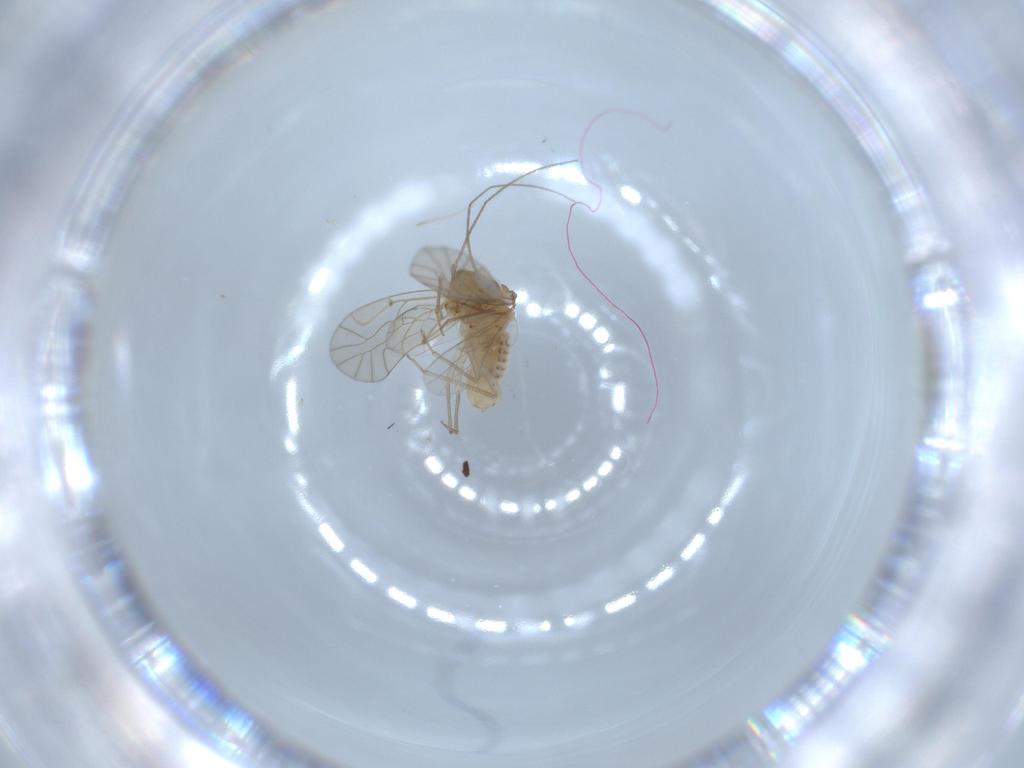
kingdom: Animalia
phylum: Arthropoda
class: Insecta
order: Psocodea
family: Lachesillidae
